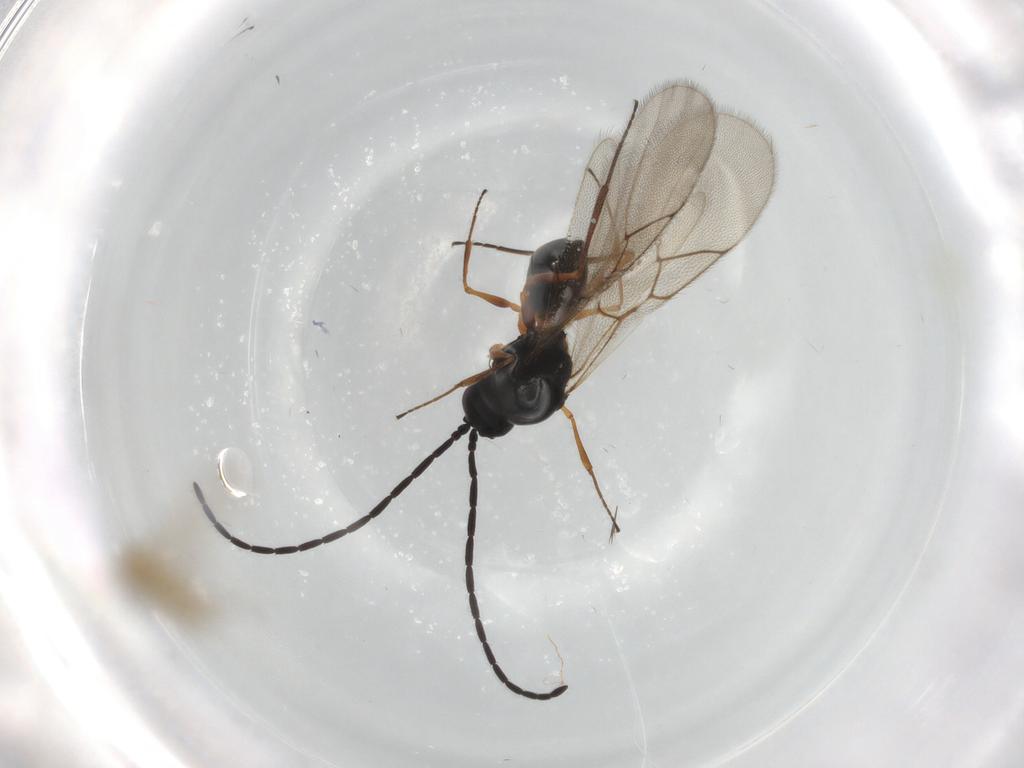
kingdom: Animalia
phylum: Arthropoda
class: Insecta
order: Hymenoptera
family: Figitidae
